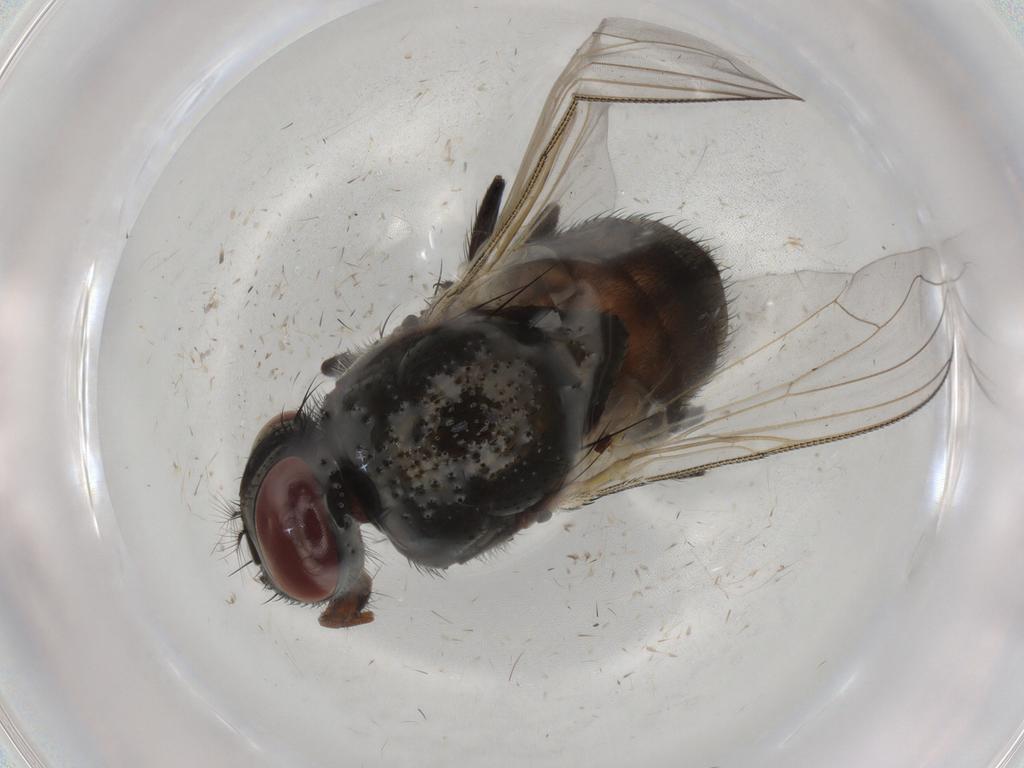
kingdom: Animalia
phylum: Arthropoda
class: Insecta
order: Diptera
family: Muscidae
